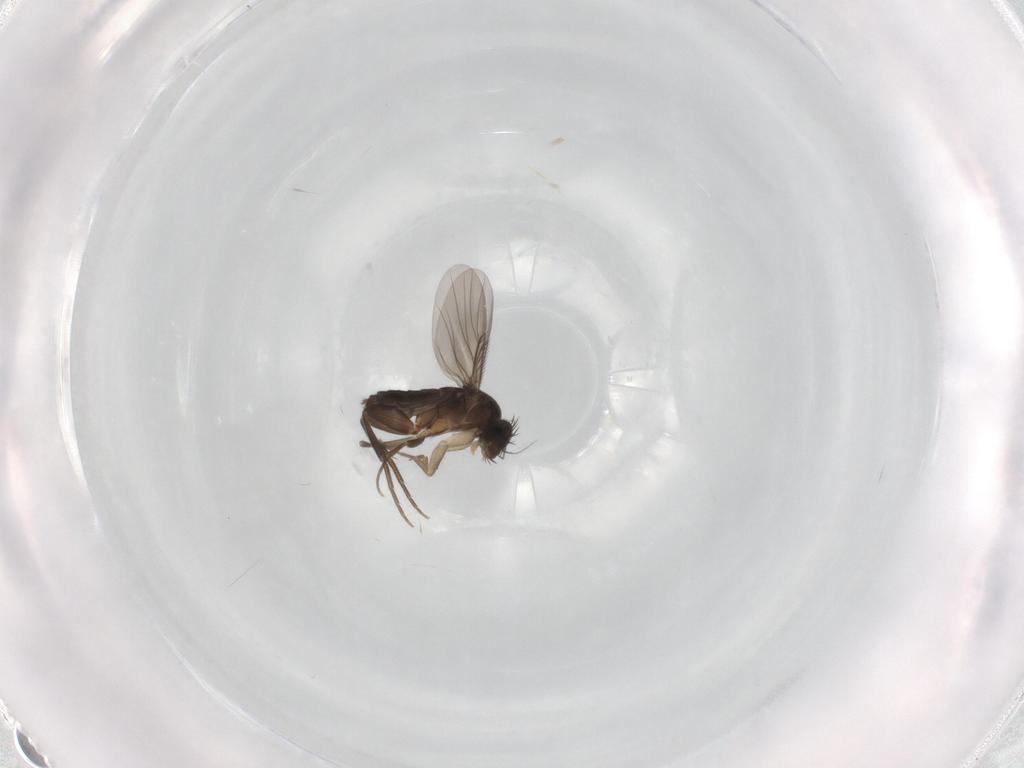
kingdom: Animalia
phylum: Arthropoda
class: Insecta
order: Diptera
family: Phoridae
